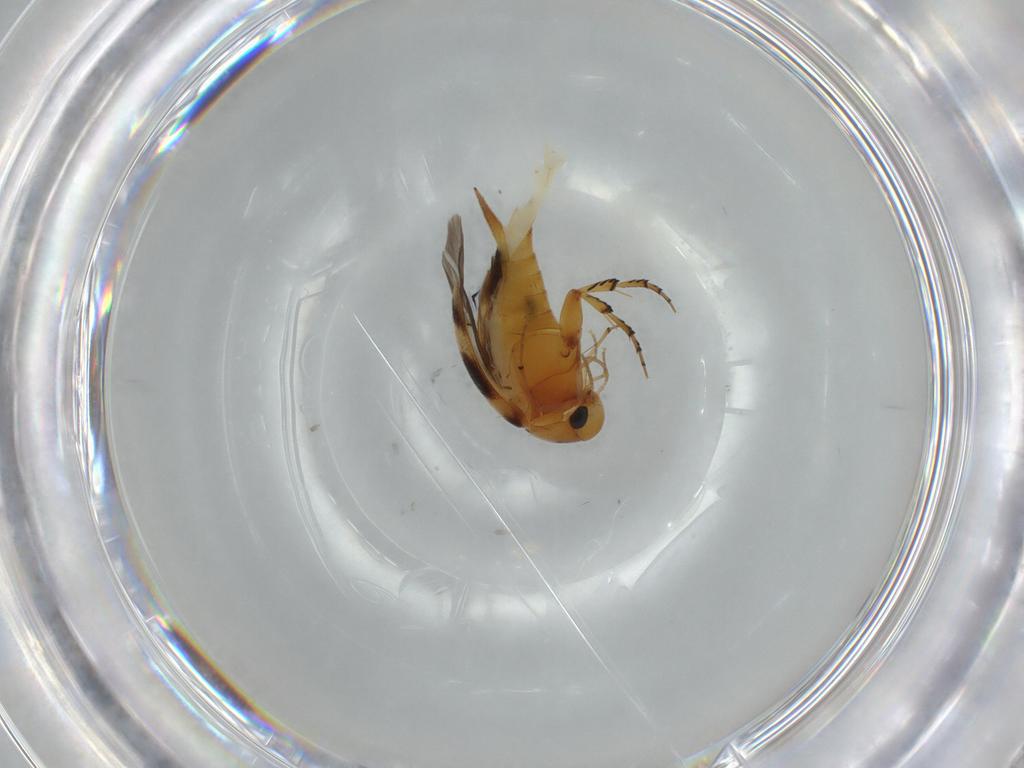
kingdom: Animalia
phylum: Arthropoda
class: Insecta
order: Coleoptera
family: Mordellidae
